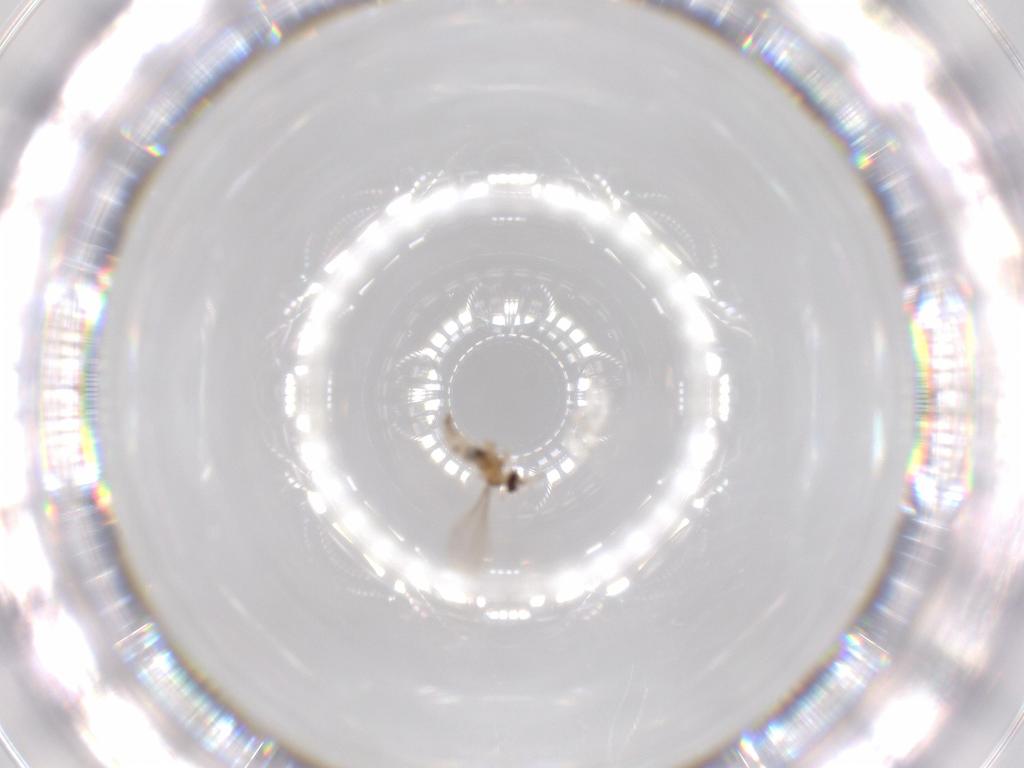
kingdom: Animalia
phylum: Arthropoda
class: Insecta
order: Diptera
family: Cecidomyiidae
